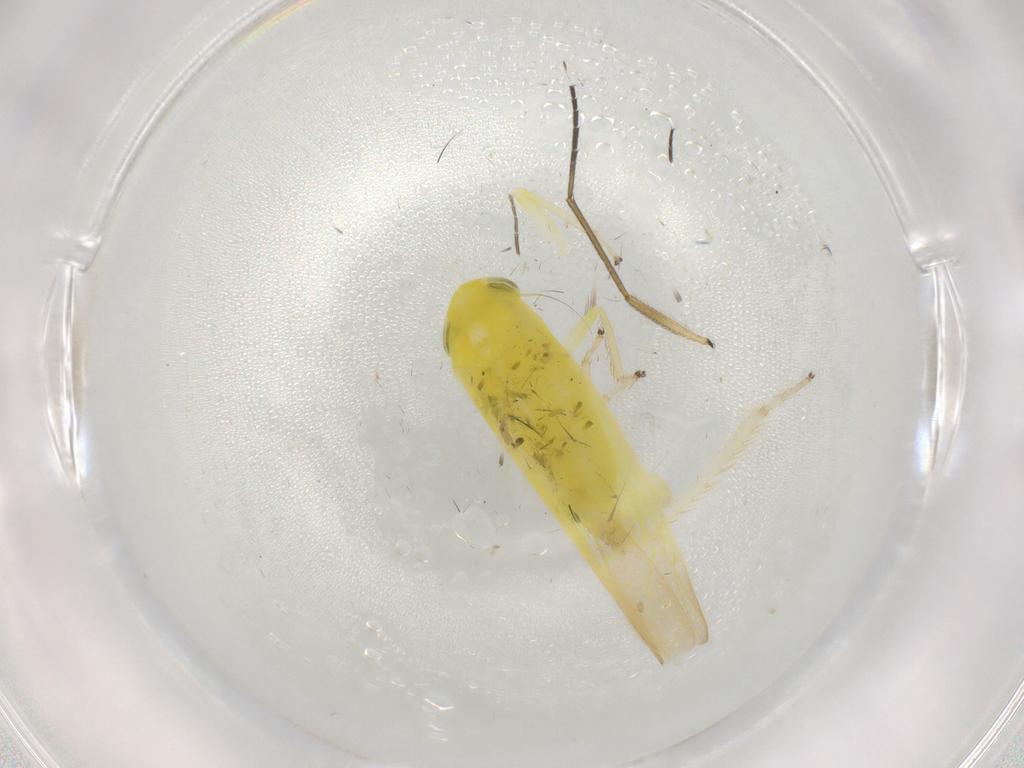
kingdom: Animalia
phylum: Arthropoda
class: Insecta
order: Hemiptera
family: Cicadellidae
